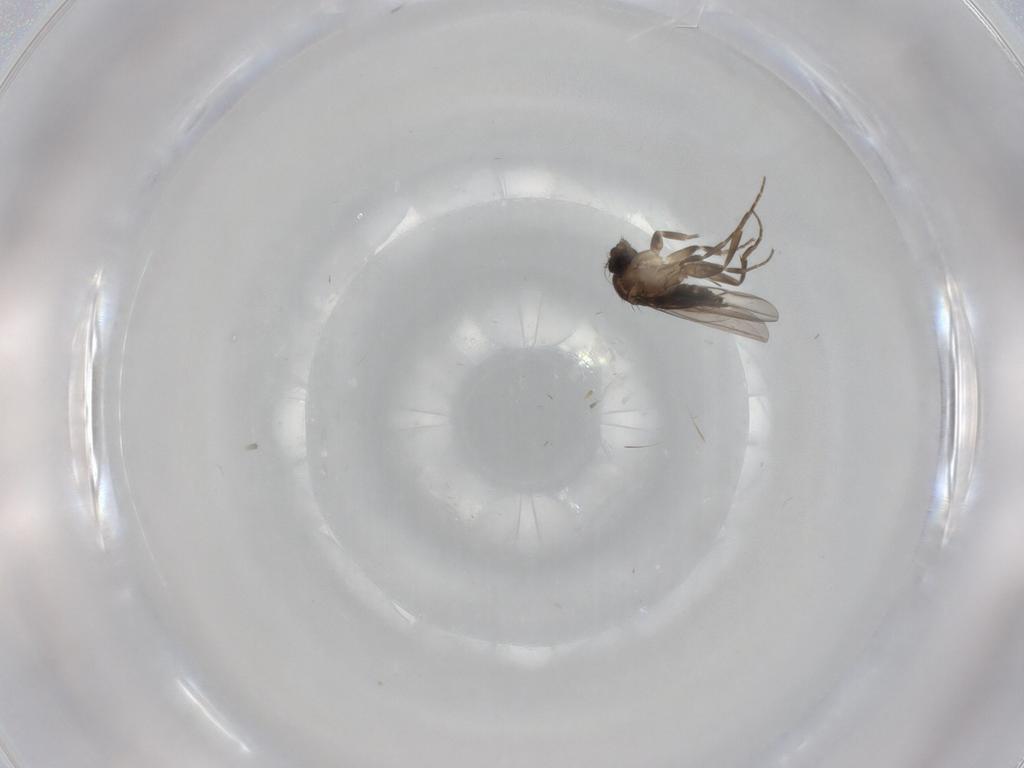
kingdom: Animalia
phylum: Arthropoda
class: Insecta
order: Diptera
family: Phoridae
